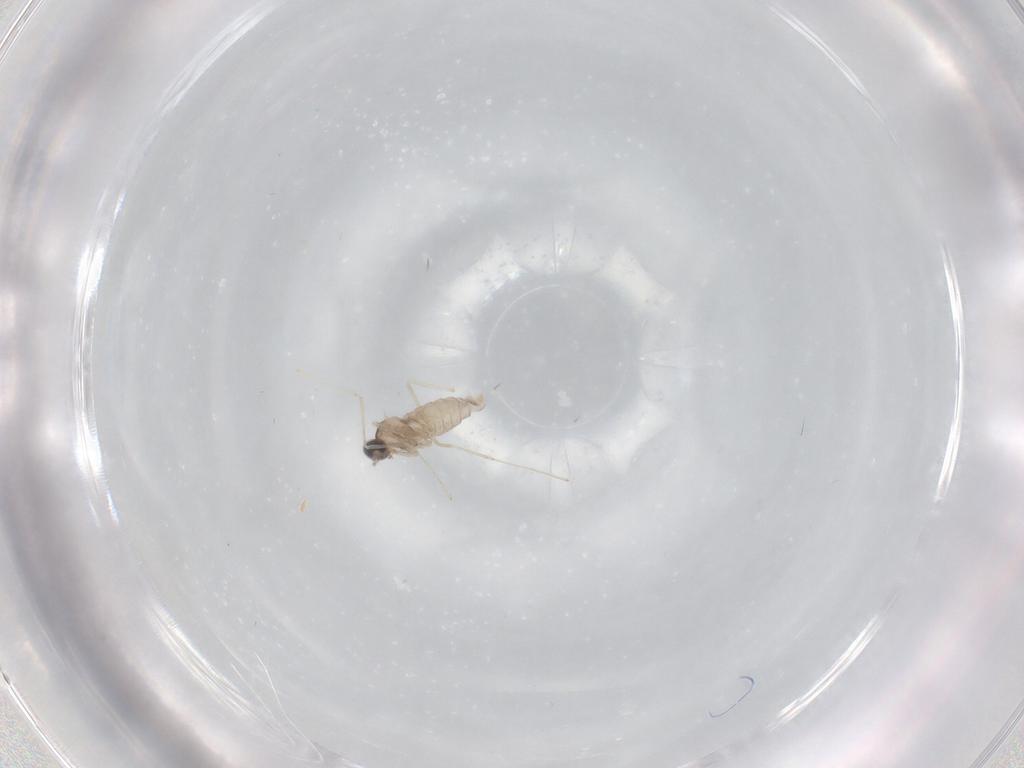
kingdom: Animalia
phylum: Arthropoda
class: Insecta
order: Diptera
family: Cecidomyiidae
